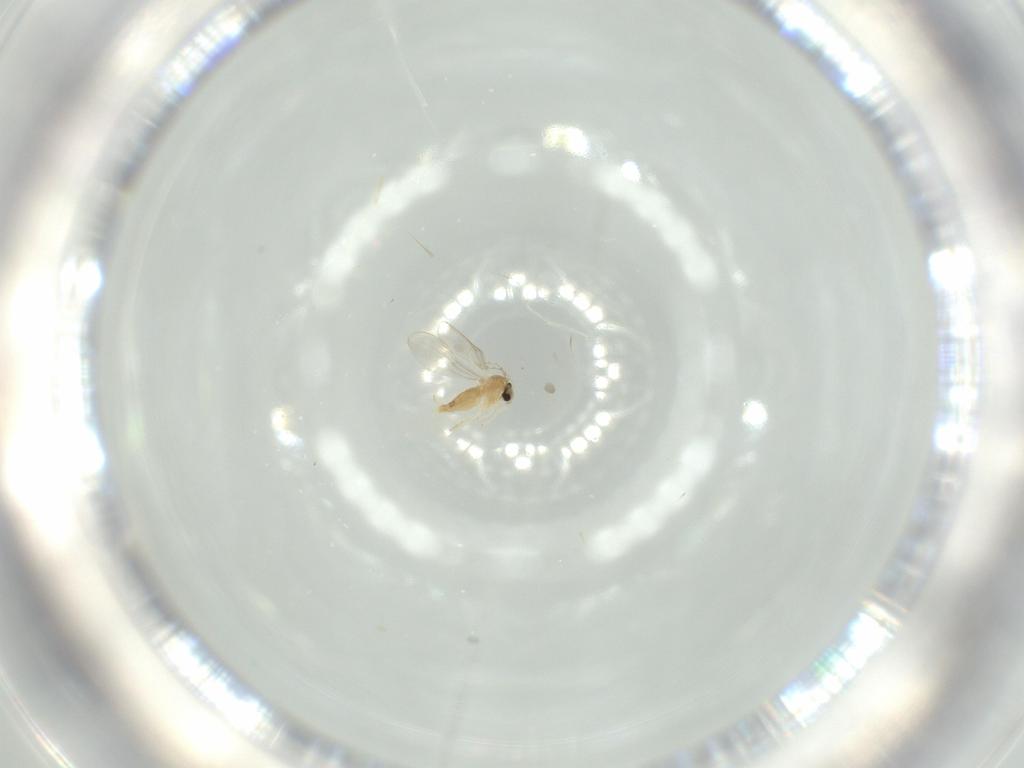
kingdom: Animalia
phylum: Arthropoda
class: Insecta
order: Diptera
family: Cecidomyiidae
